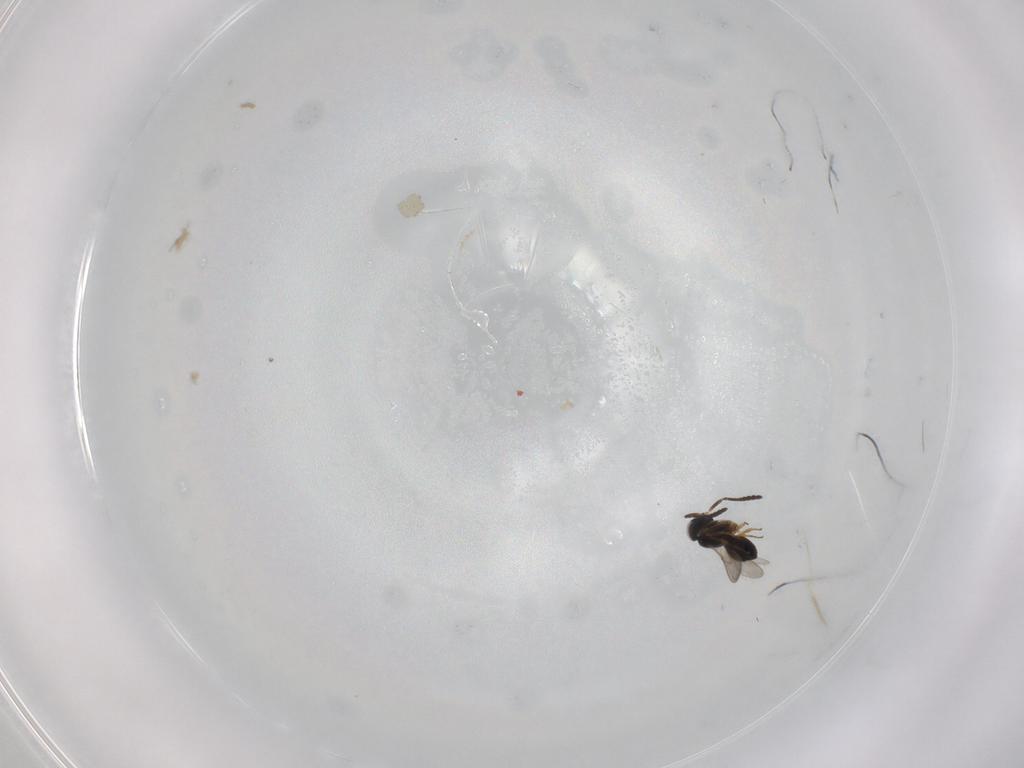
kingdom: Animalia
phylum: Arthropoda
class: Insecta
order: Hymenoptera
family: Scelionidae
